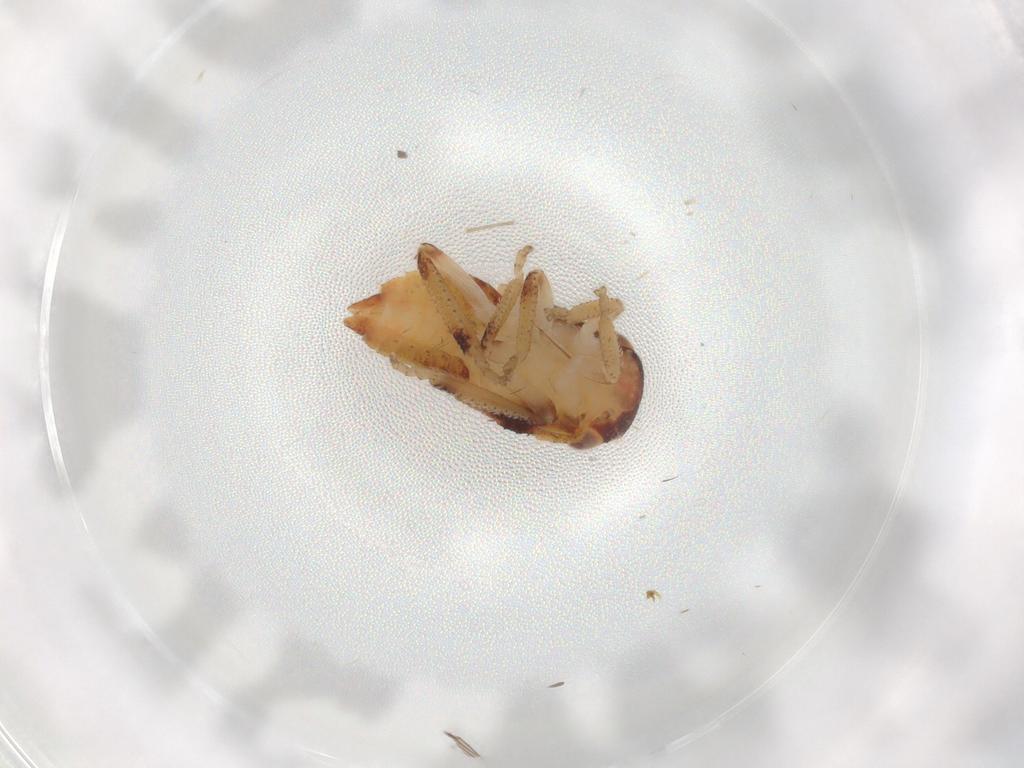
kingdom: Animalia
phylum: Arthropoda
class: Insecta
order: Hemiptera
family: Cicadellidae
